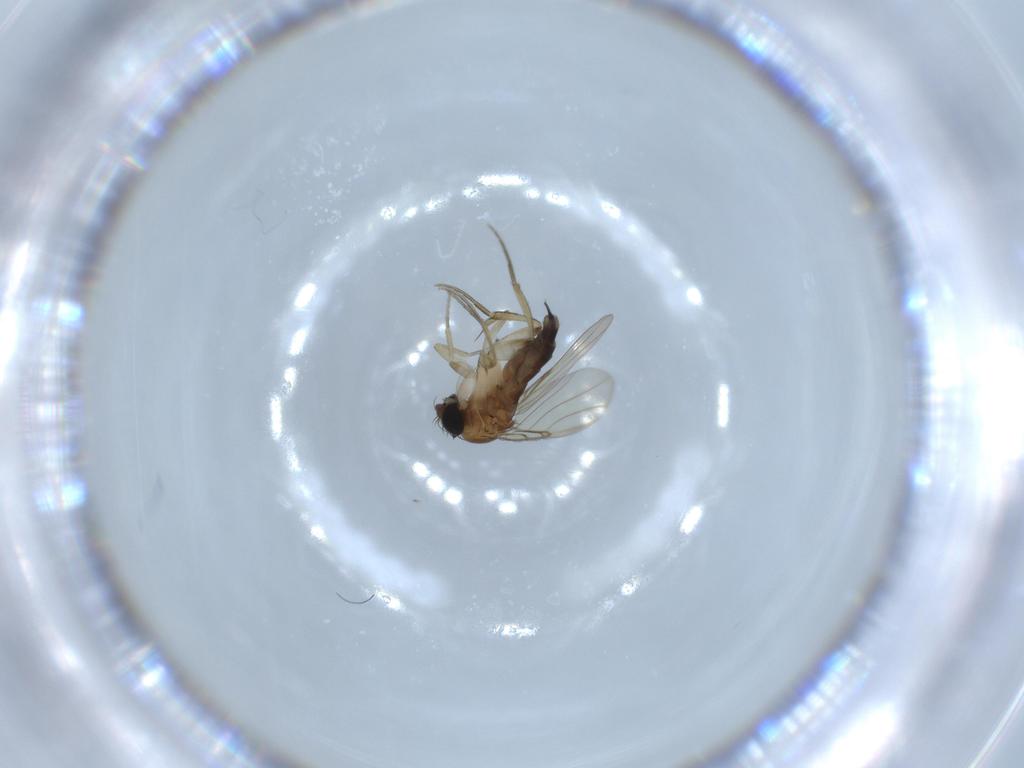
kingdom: Animalia
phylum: Arthropoda
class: Insecta
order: Diptera
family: Phoridae
